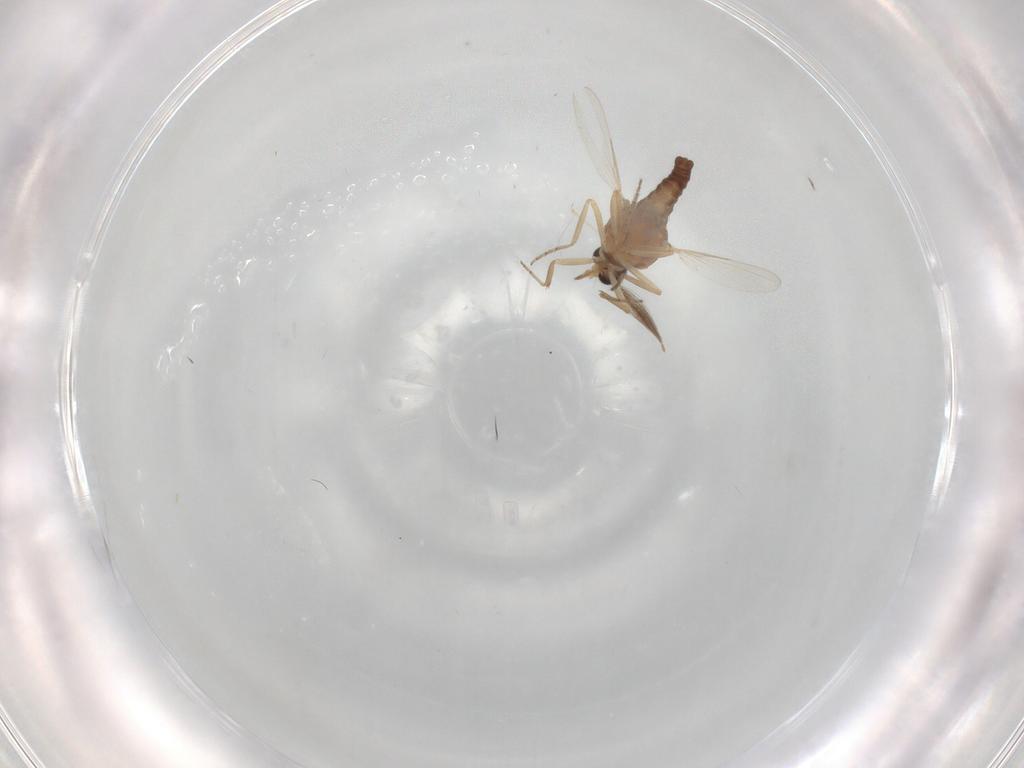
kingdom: Animalia
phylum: Arthropoda
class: Insecta
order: Diptera
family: Ceratopogonidae
